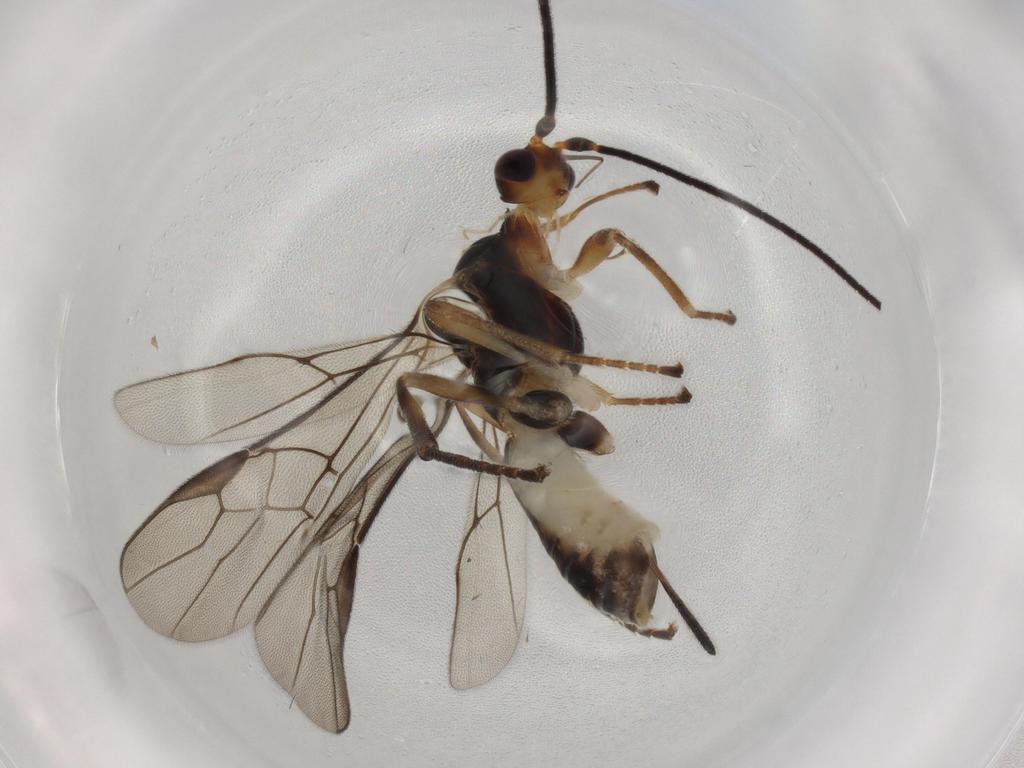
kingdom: Animalia
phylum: Arthropoda
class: Insecta
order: Hymenoptera
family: Braconidae
